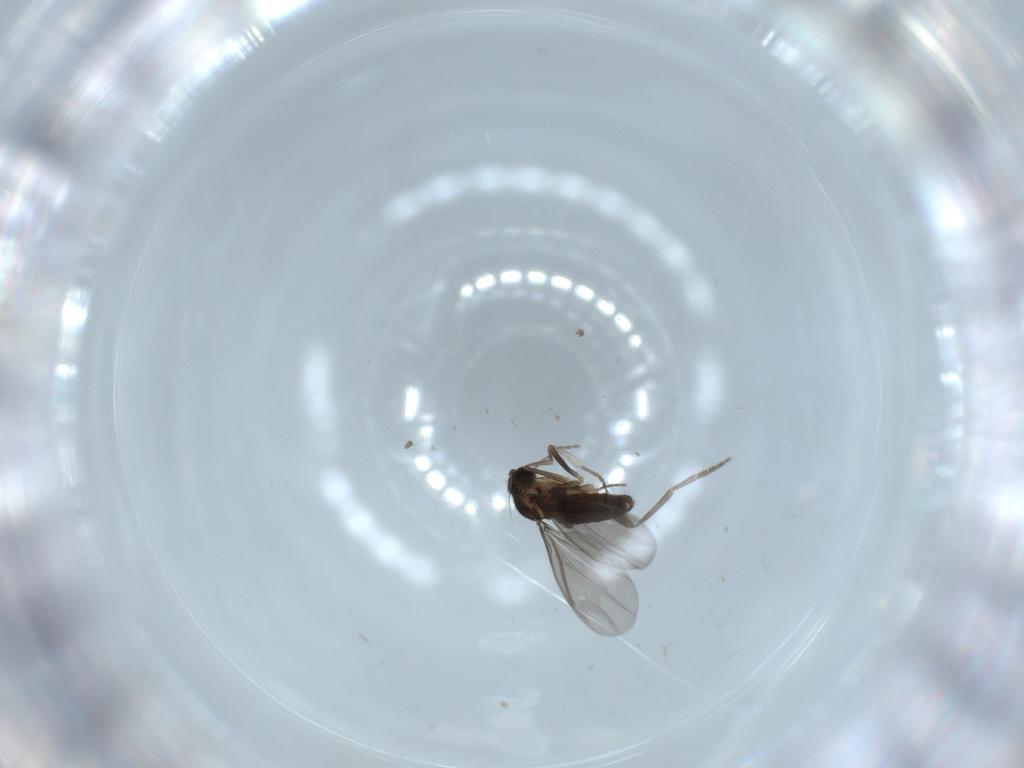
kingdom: Animalia
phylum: Arthropoda
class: Insecta
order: Diptera
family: Phoridae
